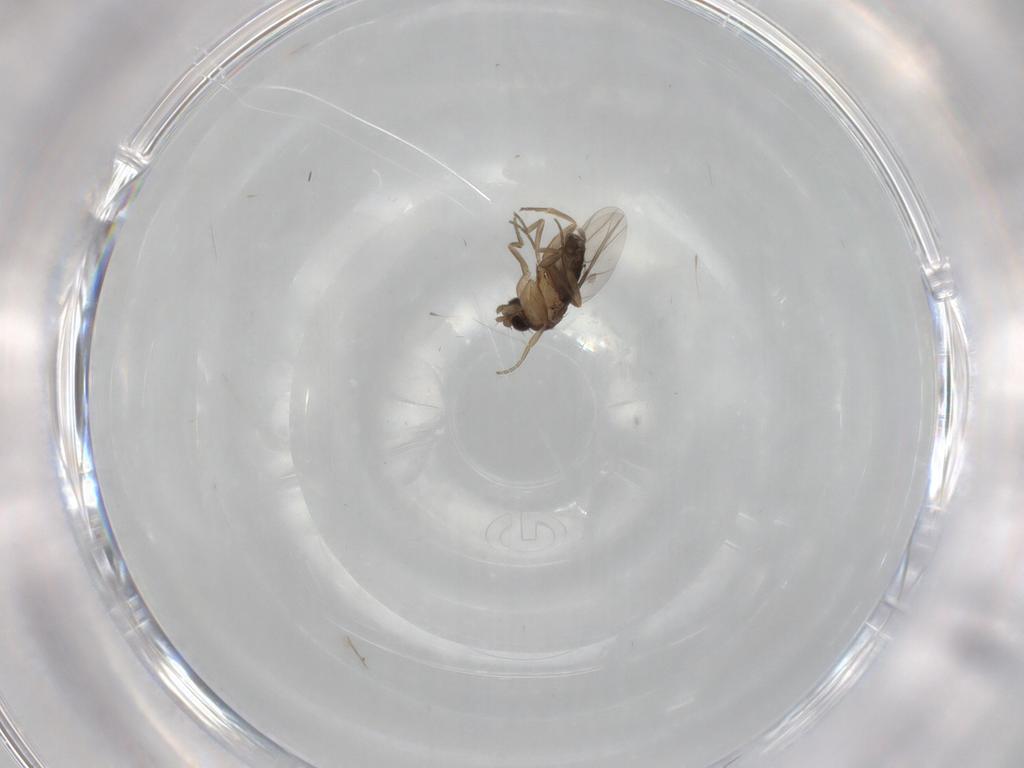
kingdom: Animalia
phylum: Arthropoda
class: Insecta
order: Diptera
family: Phoridae
